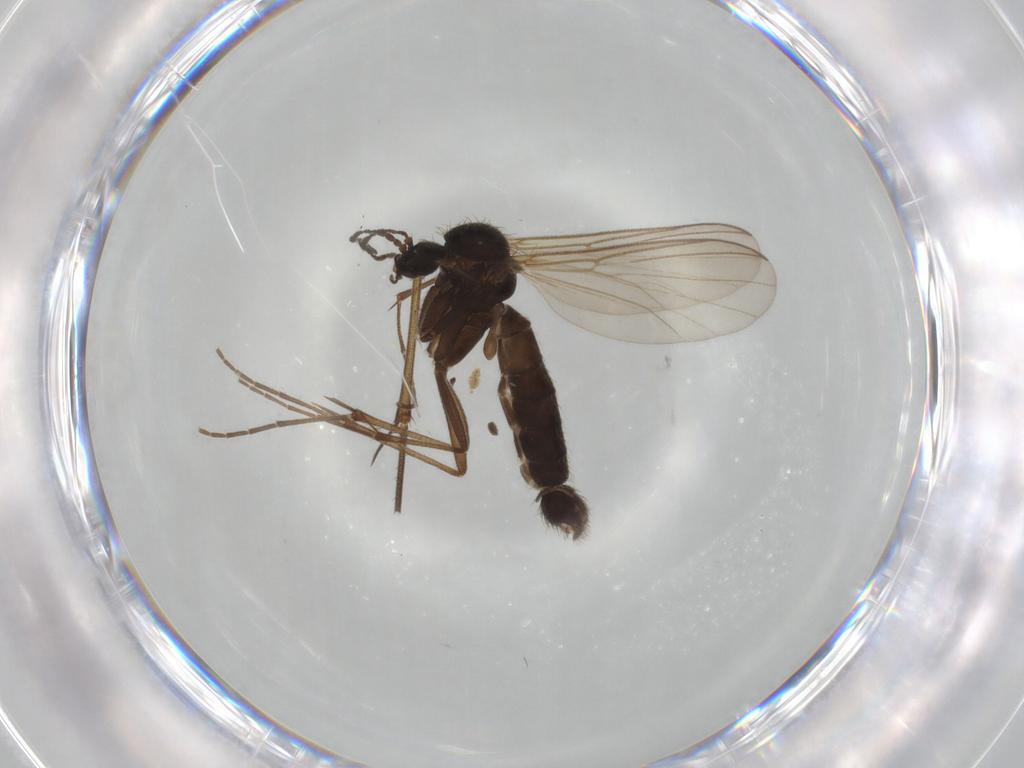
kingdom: Animalia
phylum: Arthropoda
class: Insecta
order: Diptera
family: Mycetophilidae
